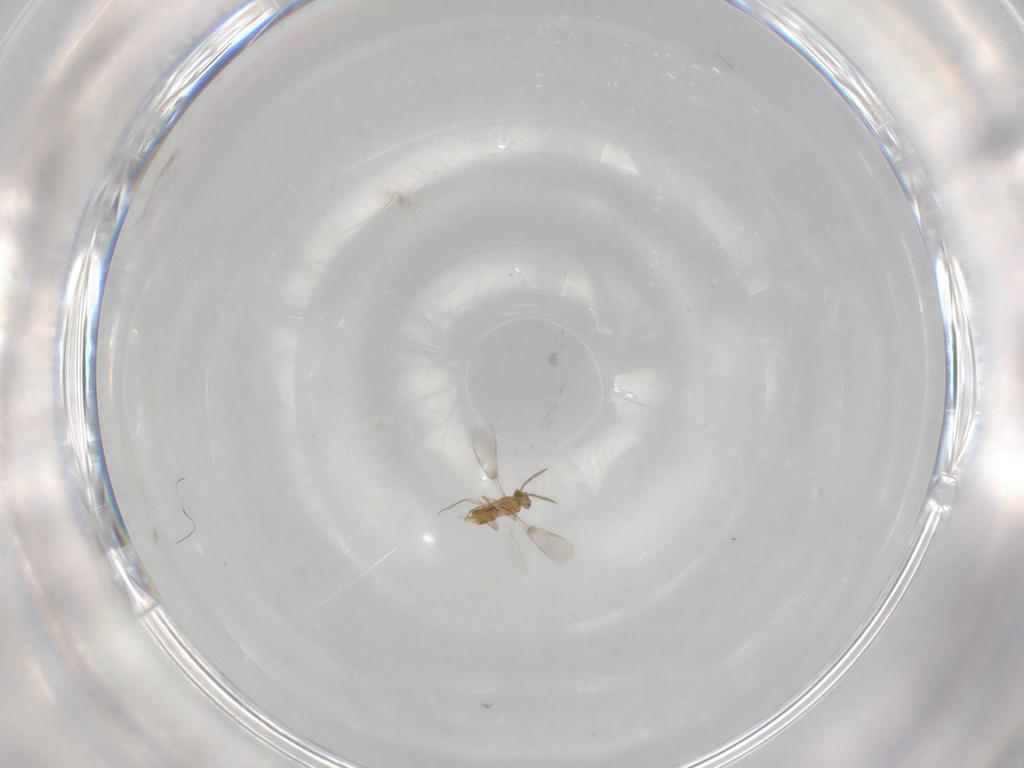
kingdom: Animalia
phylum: Arthropoda
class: Insecta
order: Hymenoptera
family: Aphelinidae
